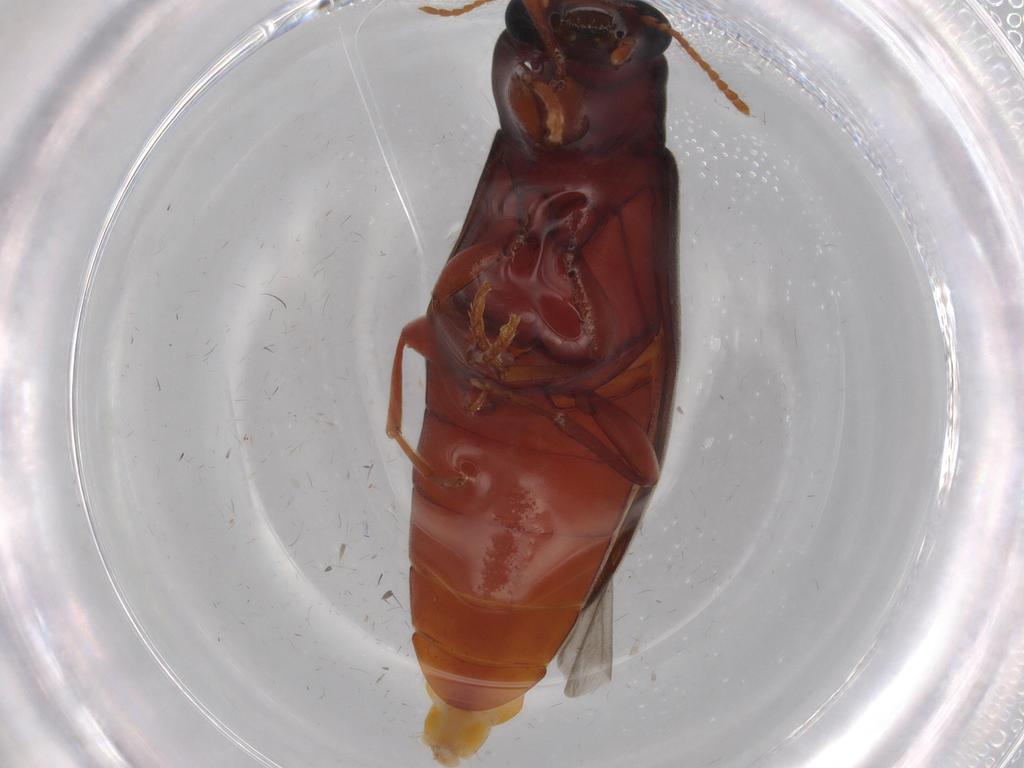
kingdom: Animalia
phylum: Arthropoda
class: Insecta
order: Coleoptera
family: Carabidae
